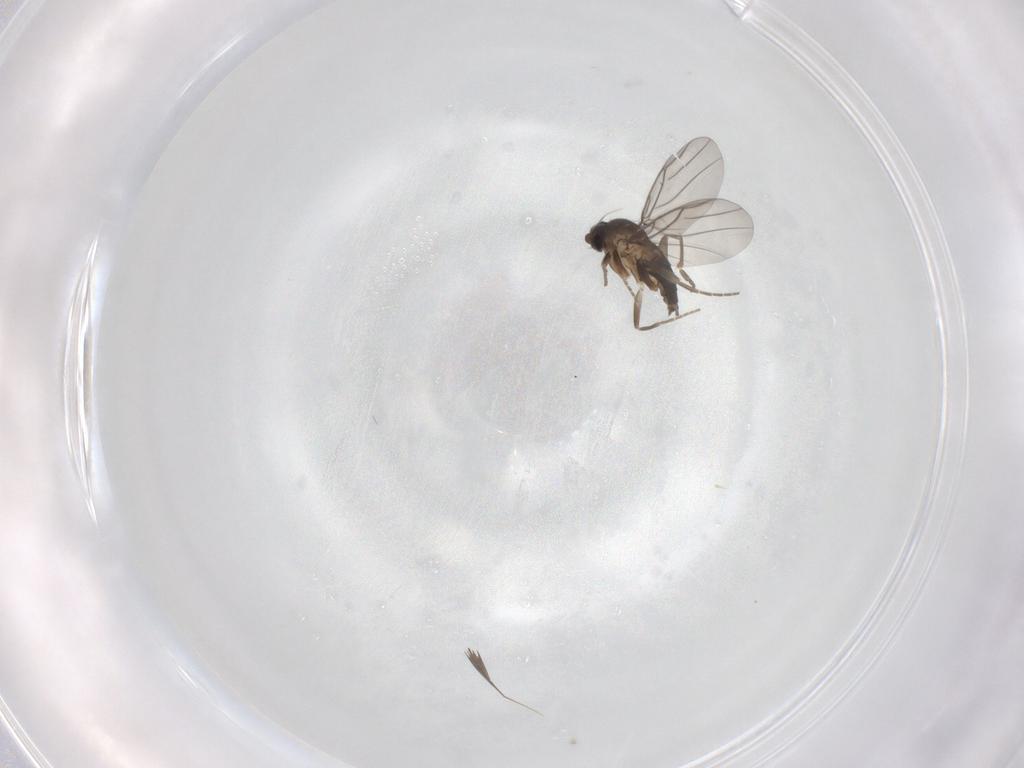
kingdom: Animalia
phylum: Arthropoda
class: Insecta
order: Diptera
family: Phoridae
